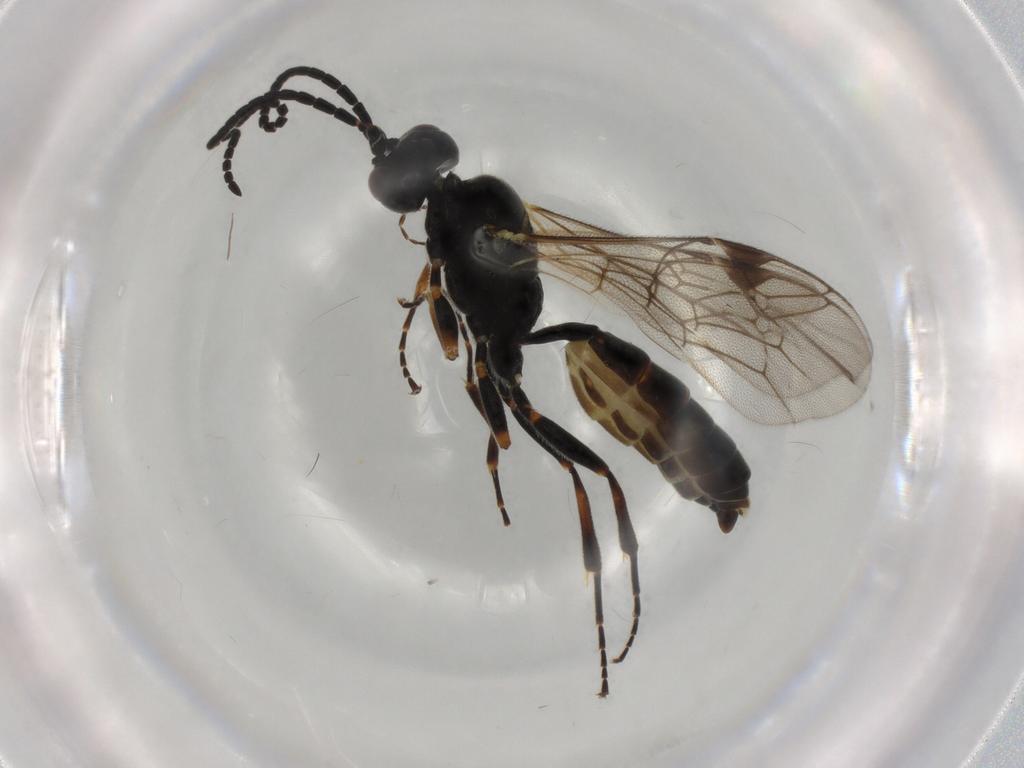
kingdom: Animalia
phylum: Arthropoda
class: Insecta
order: Hymenoptera
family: Ichneumonidae
